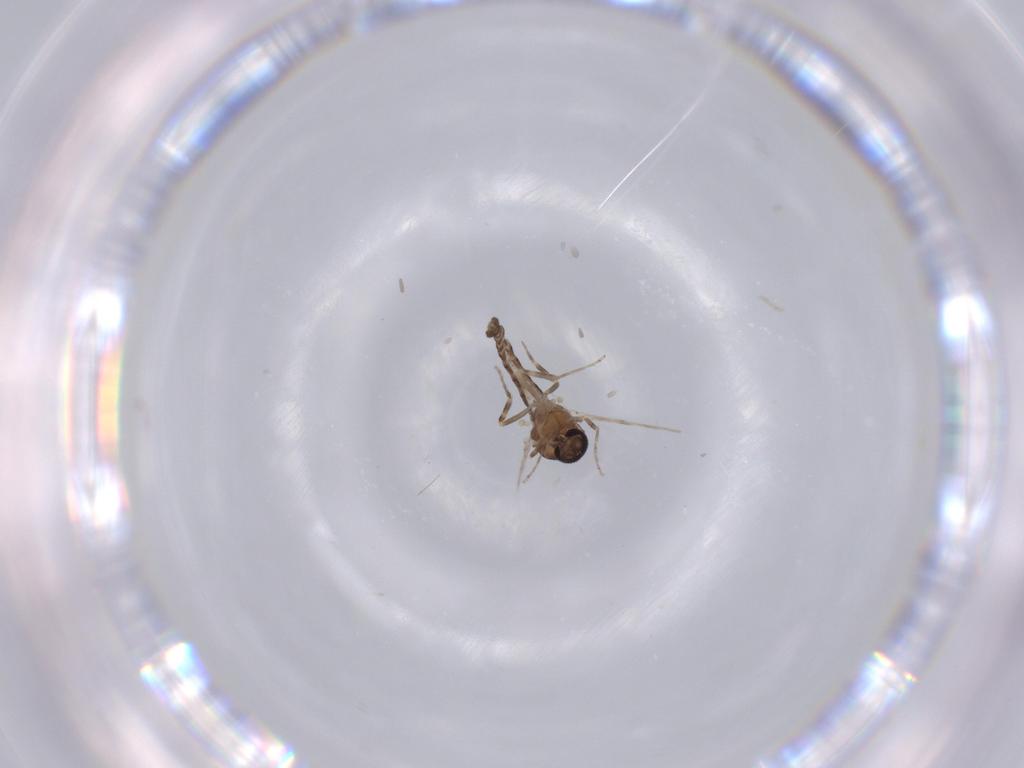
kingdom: Animalia
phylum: Arthropoda
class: Insecta
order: Diptera
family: Ceratopogonidae
